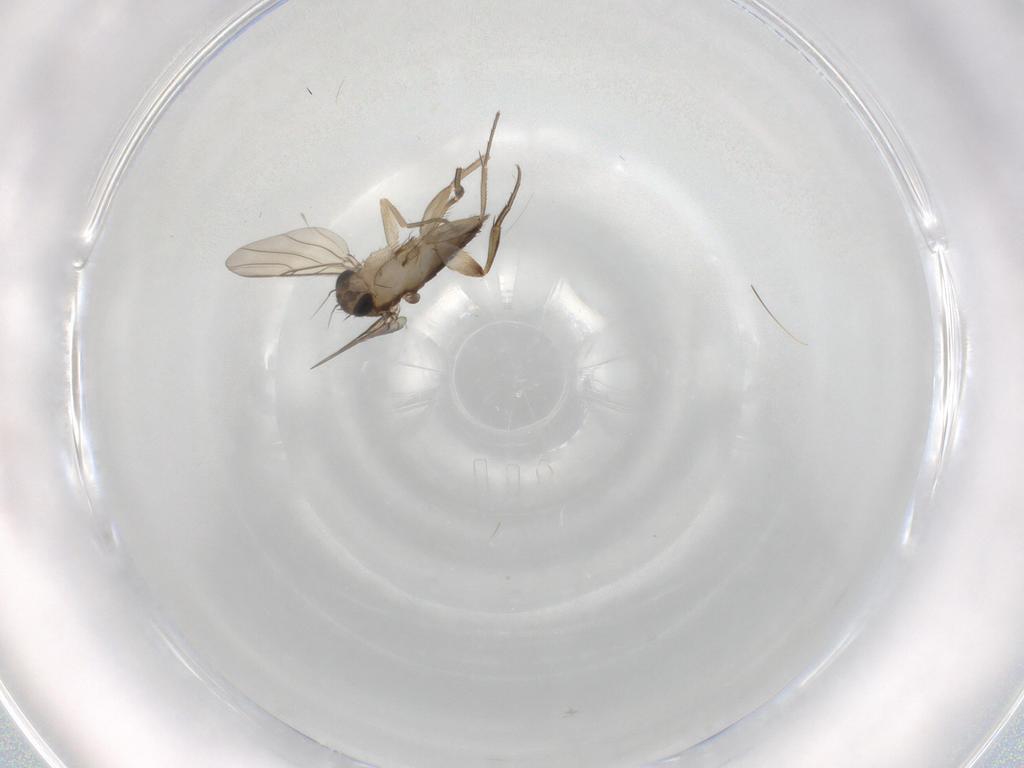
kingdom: Animalia
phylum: Arthropoda
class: Insecta
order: Diptera
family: Phoridae
